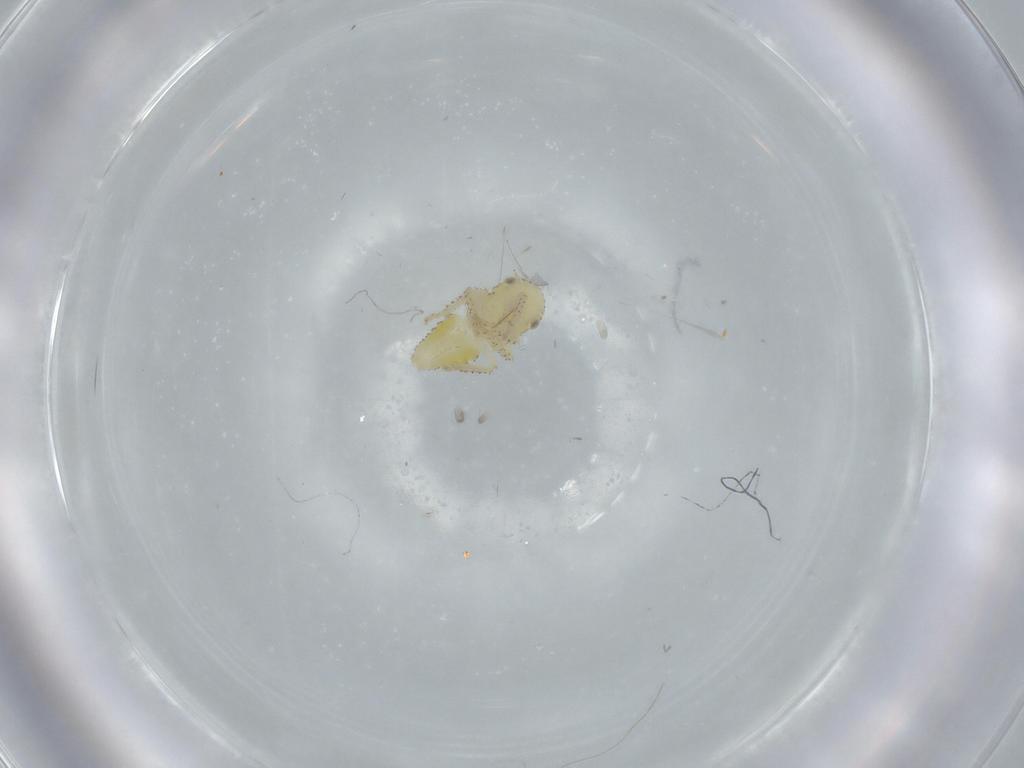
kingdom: Animalia
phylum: Arthropoda
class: Insecta
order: Hemiptera
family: Cicadellidae
